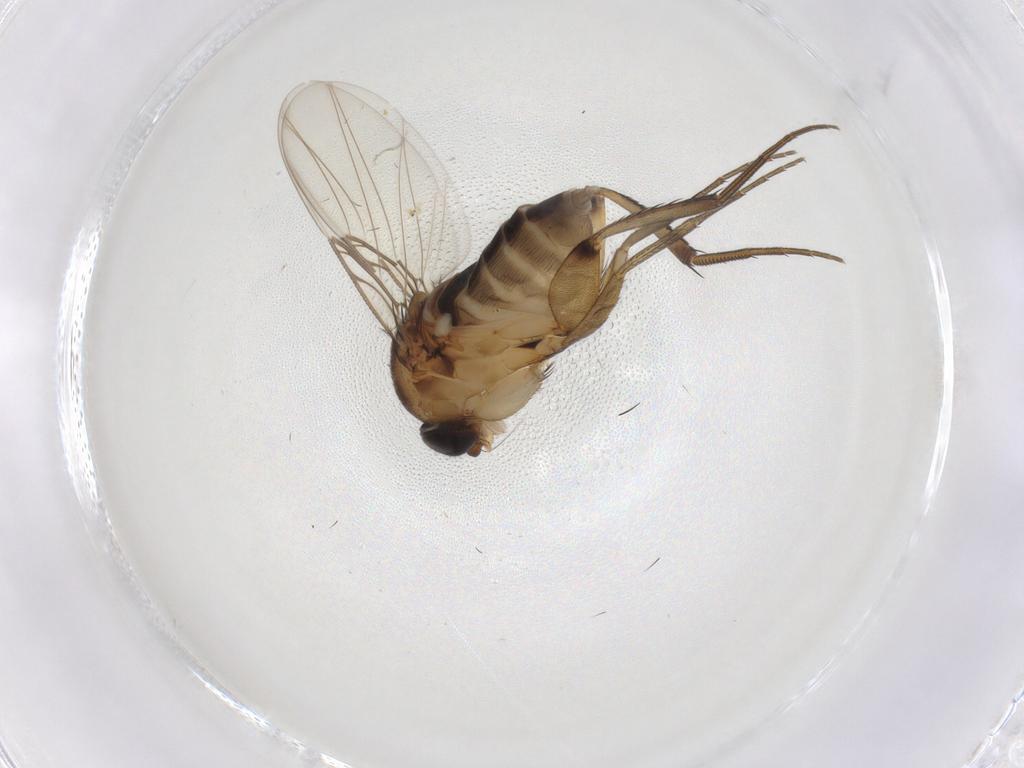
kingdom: Animalia
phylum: Arthropoda
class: Insecta
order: Diptera
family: Phoridae
